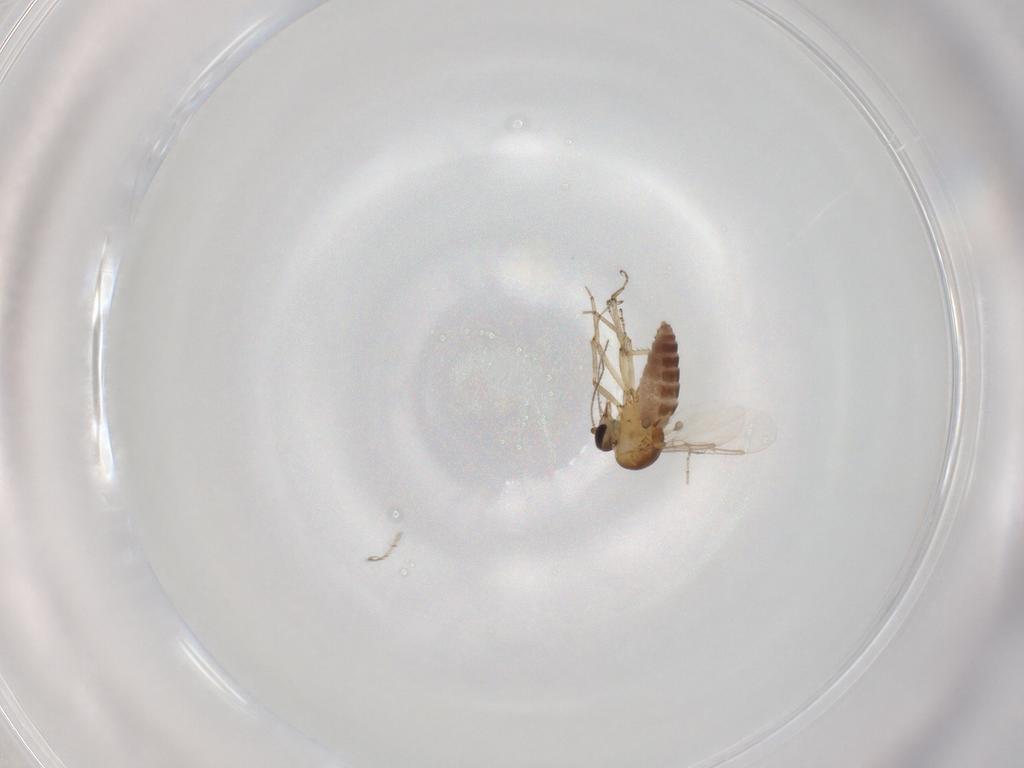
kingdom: Animalia
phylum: Arthropoda
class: Insecta
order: Diptera
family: Ceratopogonidae
